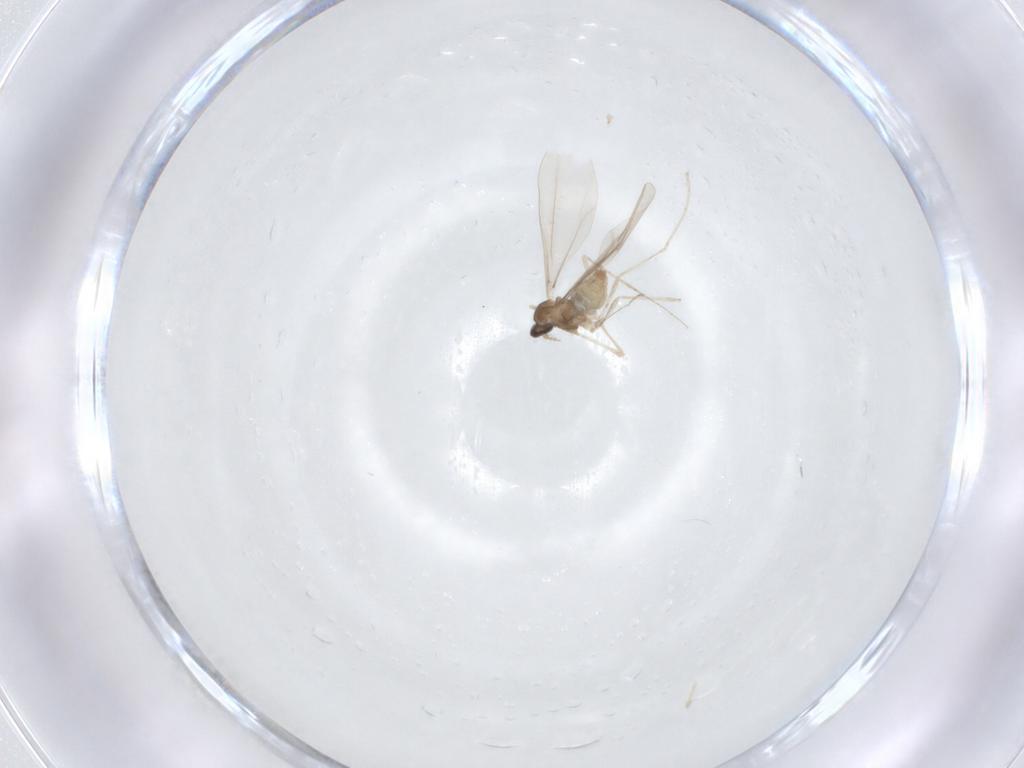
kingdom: Animalia
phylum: Arthropoda
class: Insecta
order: Diptera
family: Cecidomyiidae
